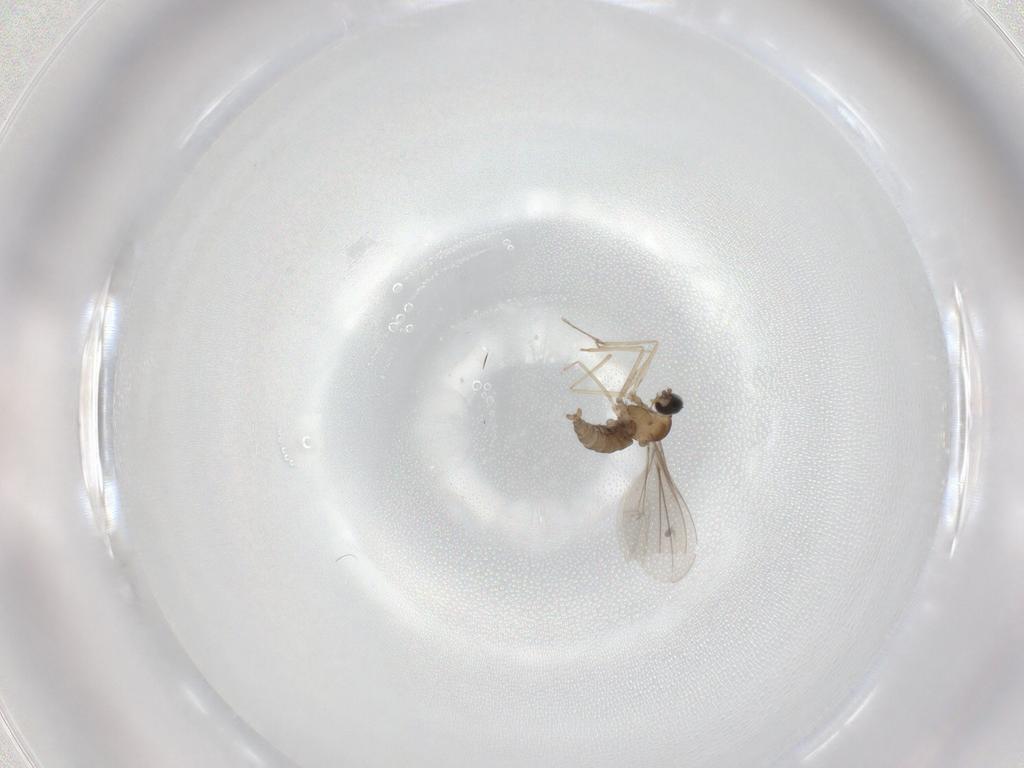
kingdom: Animalia
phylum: Arthropoda
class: Insecta
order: Diptera
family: Cecidomyiidae
